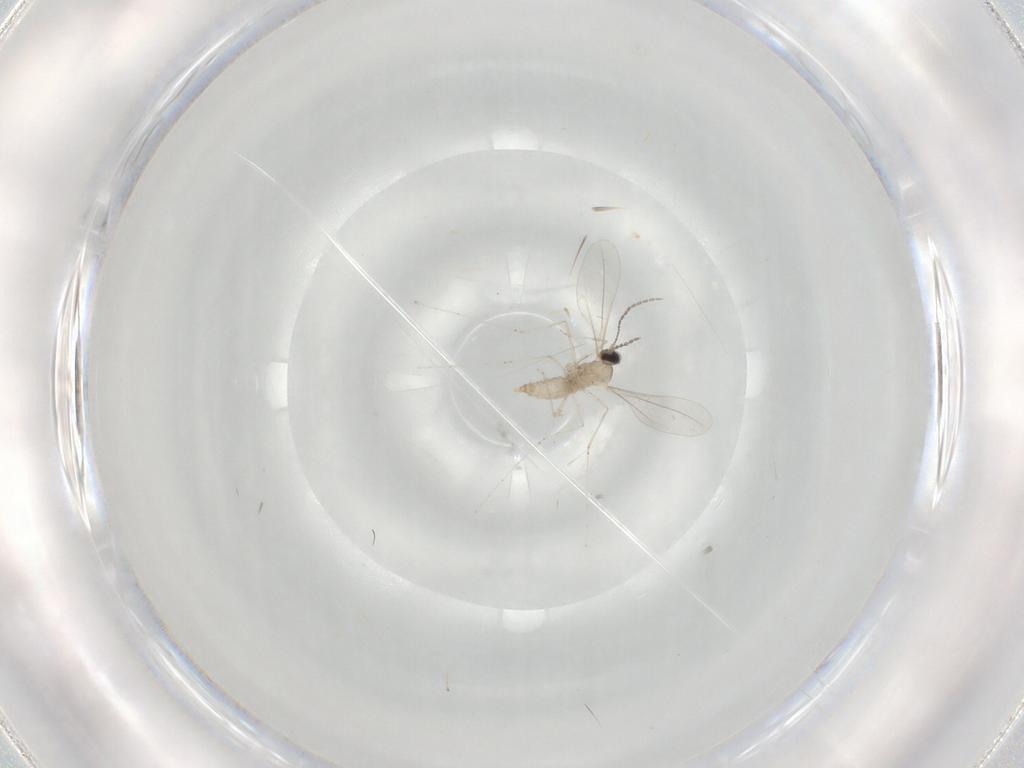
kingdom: Animalia
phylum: Arthropoda
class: Insecta
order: Diptera
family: Cecidomyiidae
